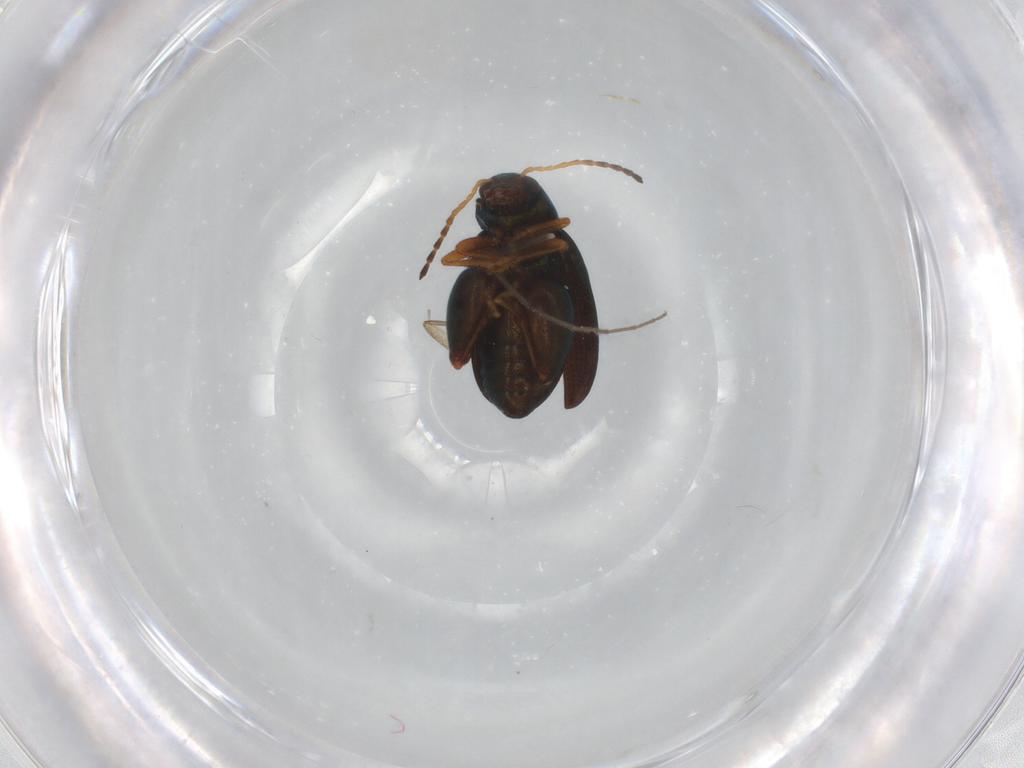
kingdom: Animalia
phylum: Arthropoda
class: Insecta
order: Coleoptera
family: Chrysomelidae
